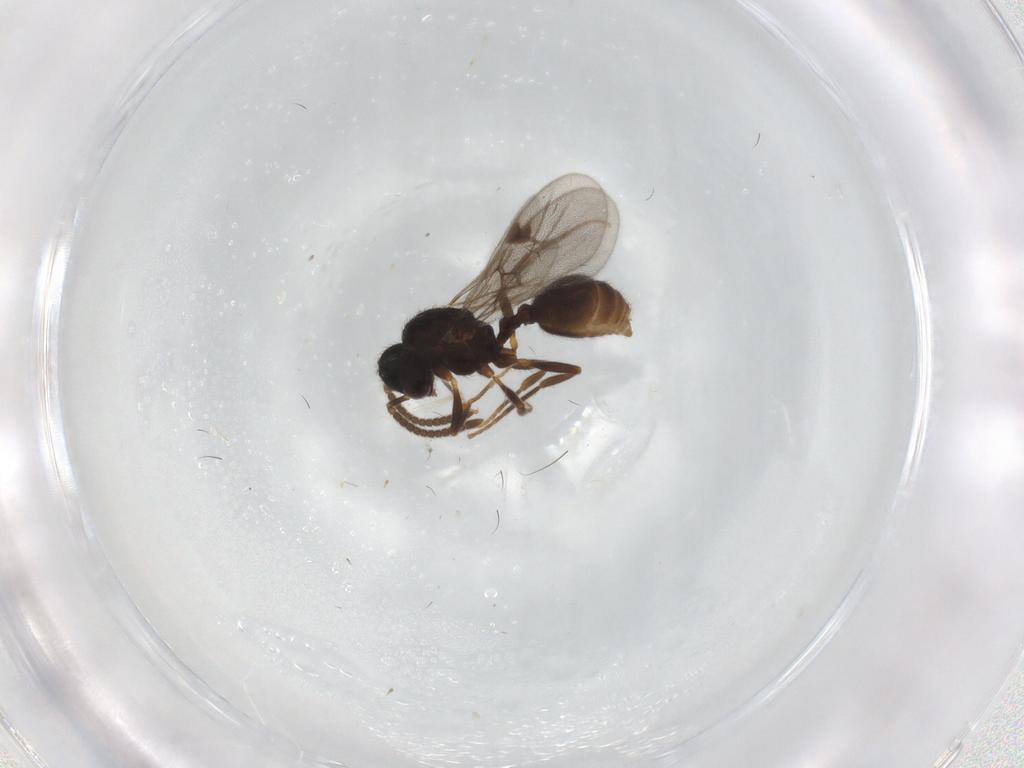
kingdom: Animalia
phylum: Arthropoda
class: Insecta
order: Hymenoptera
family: Formicidae
